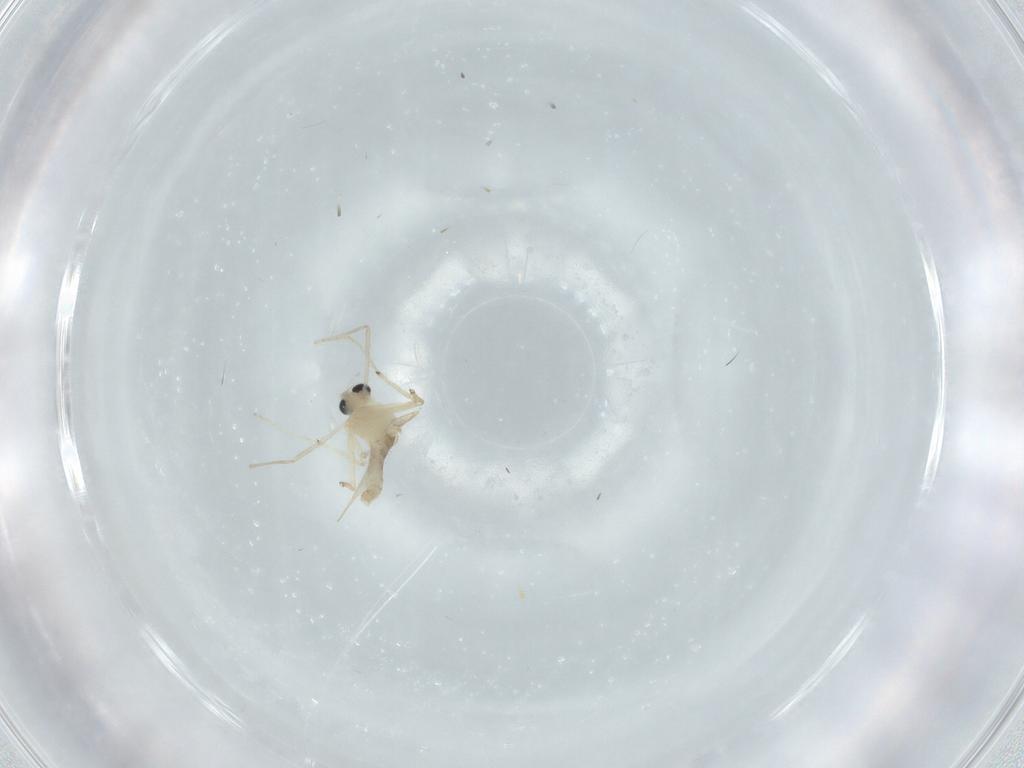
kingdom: Animalia
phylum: Arthropoda
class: Insecta
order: Diptera
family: Chironomidae
